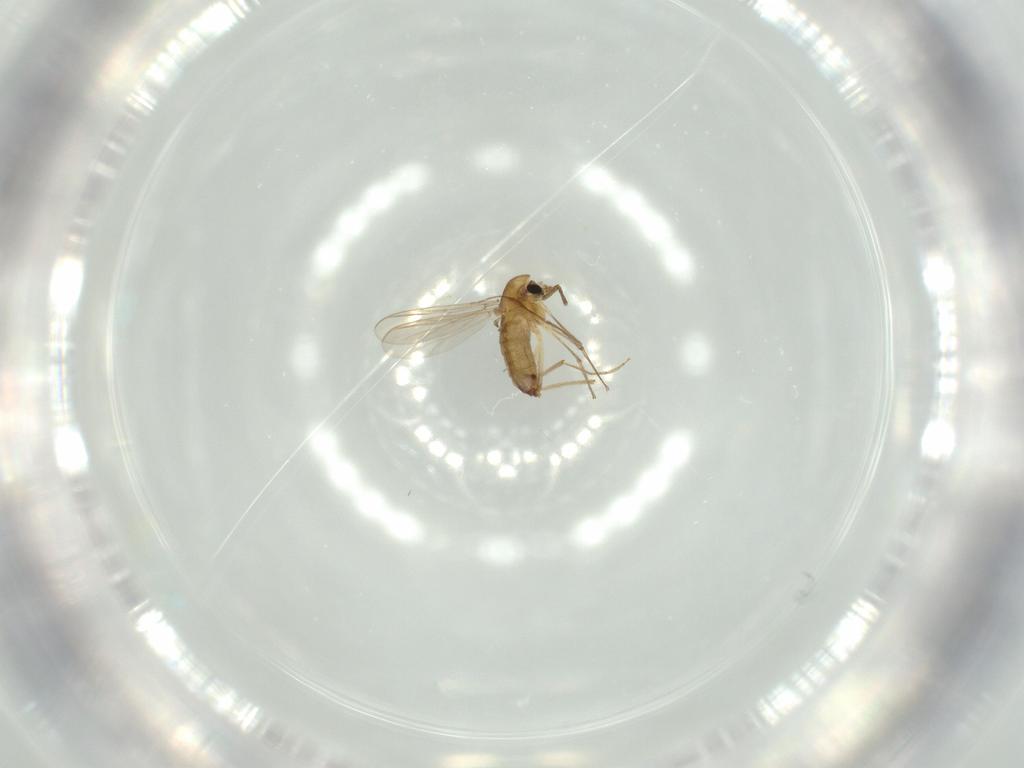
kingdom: Animalia
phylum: Arthropoda
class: Insecta
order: Diptera
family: Chironomidae
